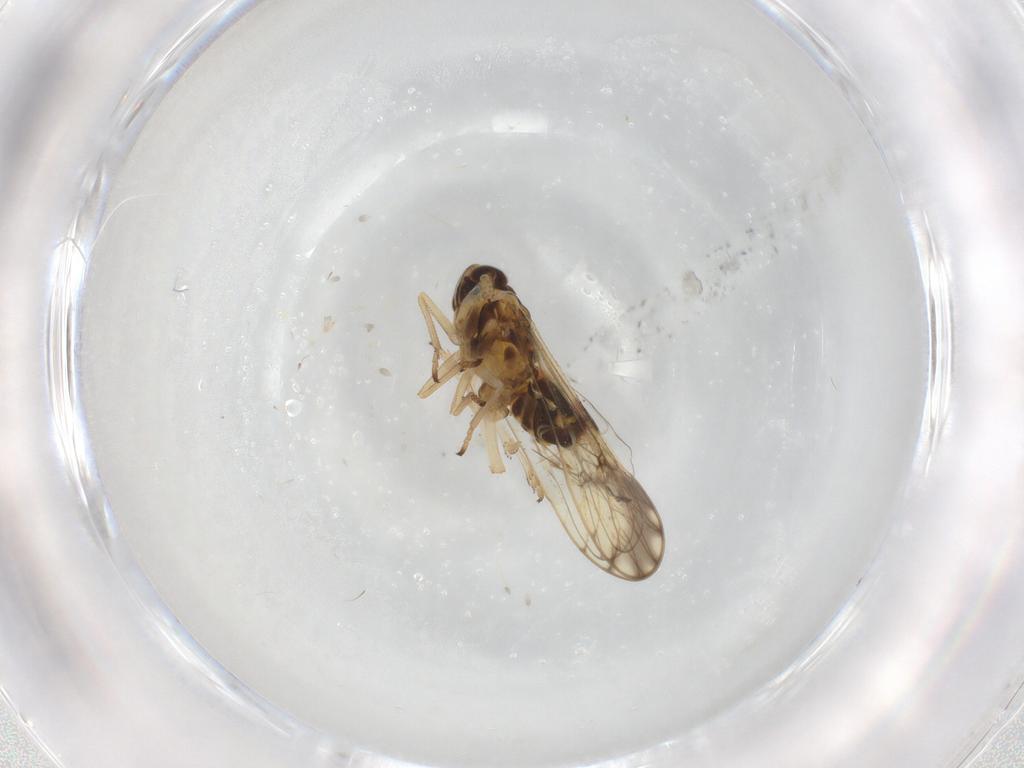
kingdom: Animalia
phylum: Arthropoda
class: Insecta
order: Hemiptera
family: Delphacidae
